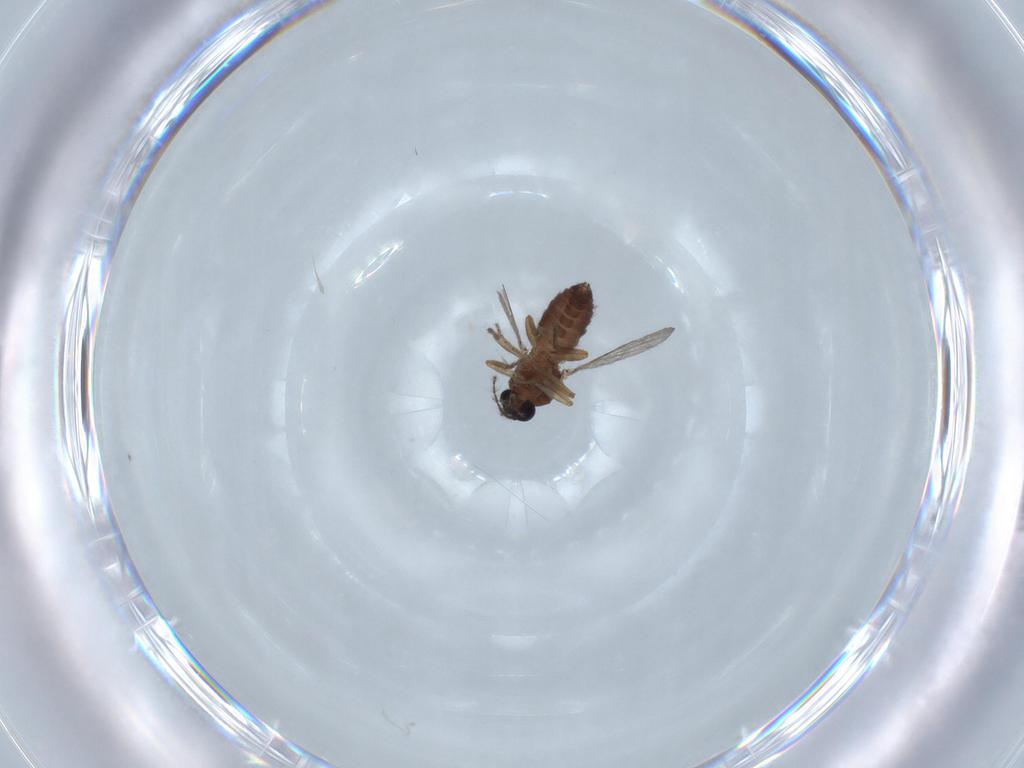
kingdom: Animalia
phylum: Arthropoda
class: Insecta
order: Diptera
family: Ceratopogonidae
